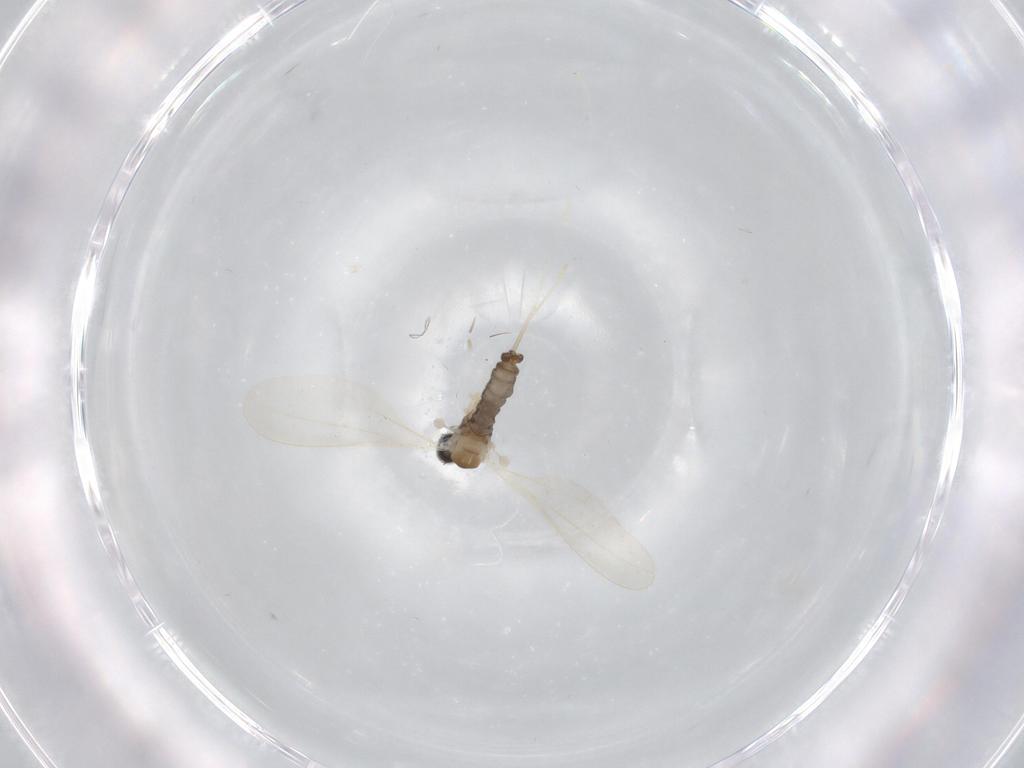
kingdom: Animalia
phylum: Arthropoda
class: Insecta
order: Diptera
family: Cecidomyiidae
